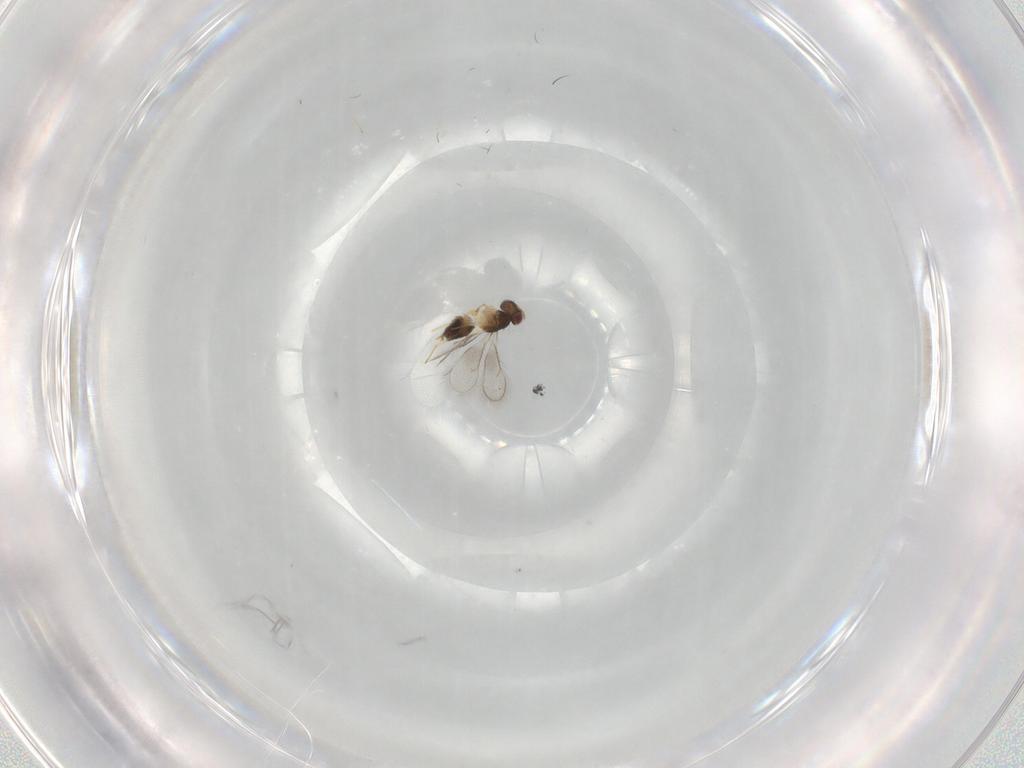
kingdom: Animalia
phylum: Arthropoda
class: Insecta
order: Hymenoptera
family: Eulophidae
